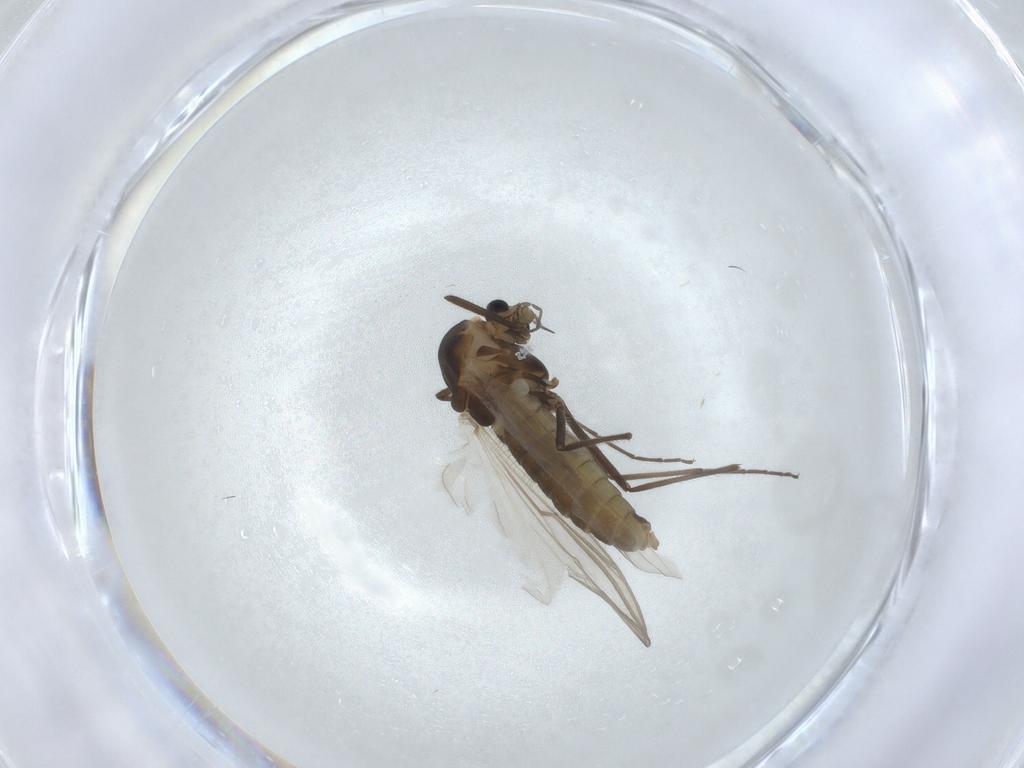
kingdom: Animalia
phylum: Arthropoda
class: Insecta
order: Diptera
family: Chironomidae
